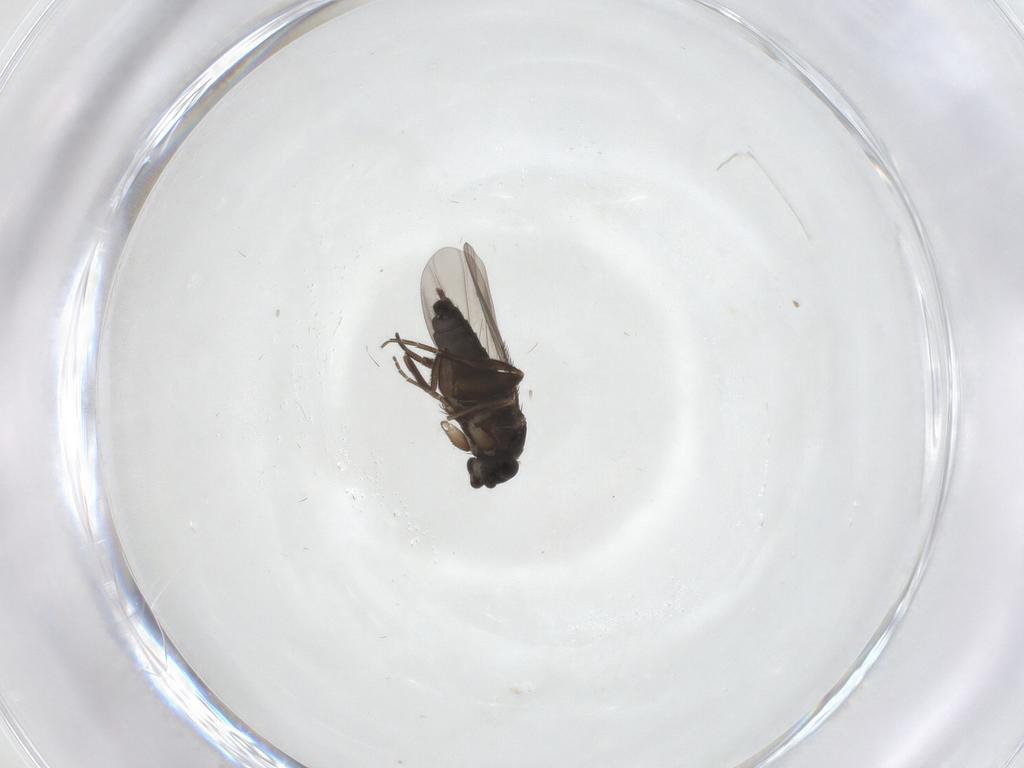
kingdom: Animalia
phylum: Arthropoda
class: Insecta
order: Diptera
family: Phoridae
